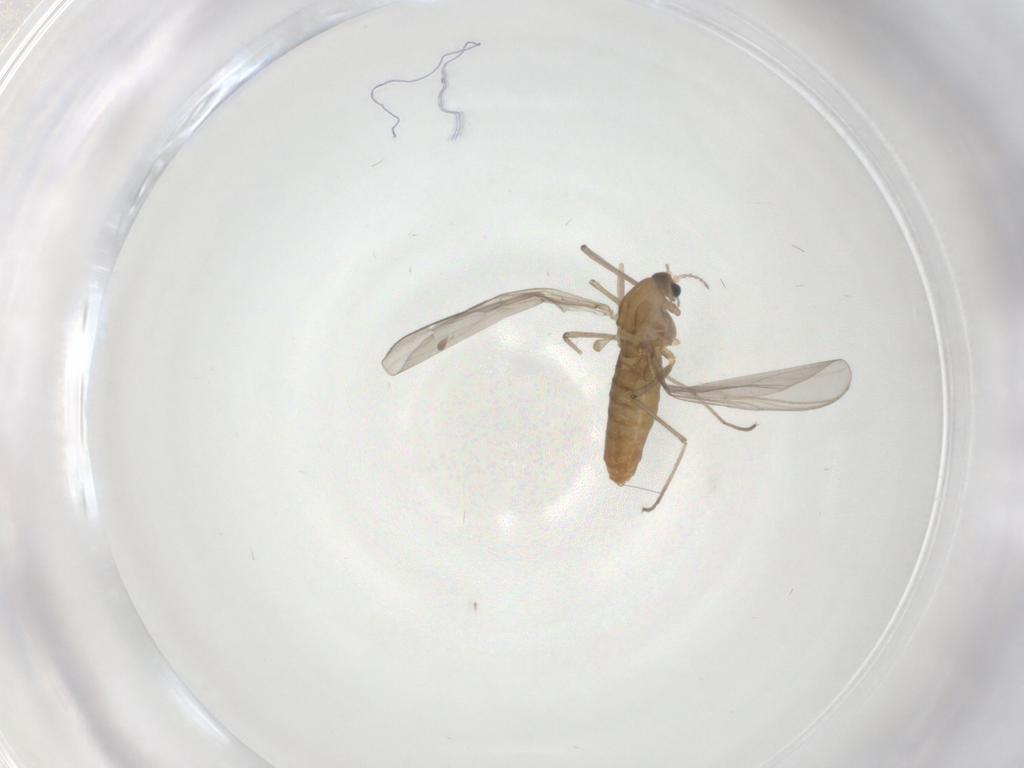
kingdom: Animalia
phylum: Arthropoda
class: Insecta
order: Diptera
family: Chironomidae
